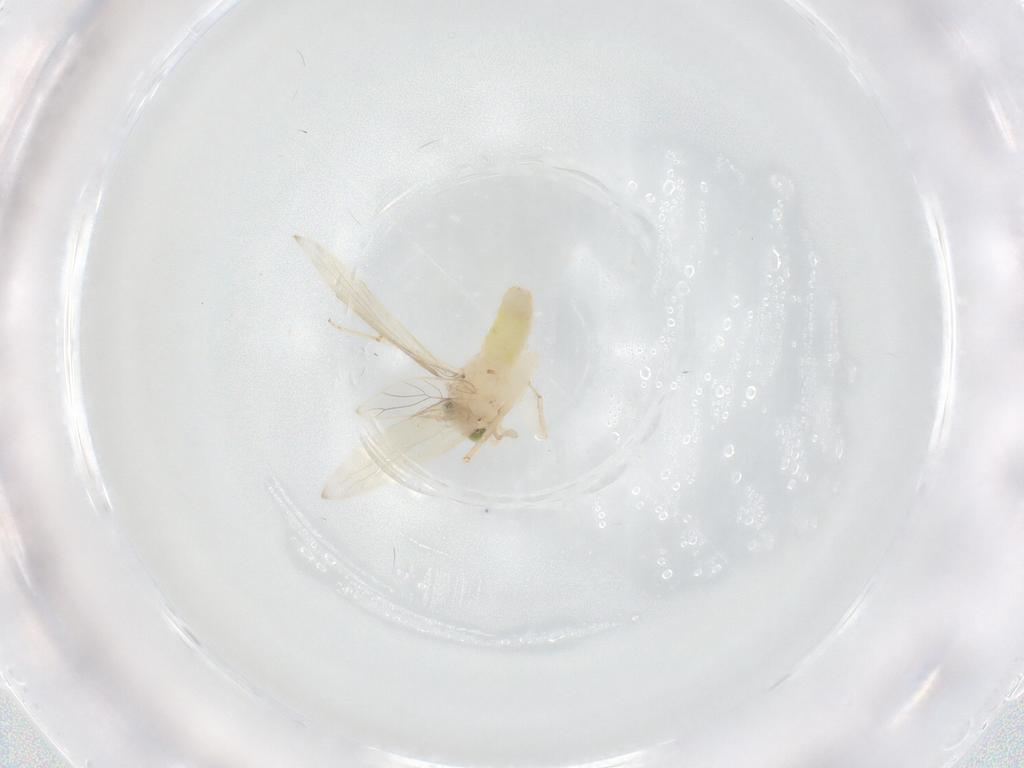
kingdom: Animalia
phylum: Arthropoda
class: Insecta
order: Psocodea
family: Lepidopsocidae
